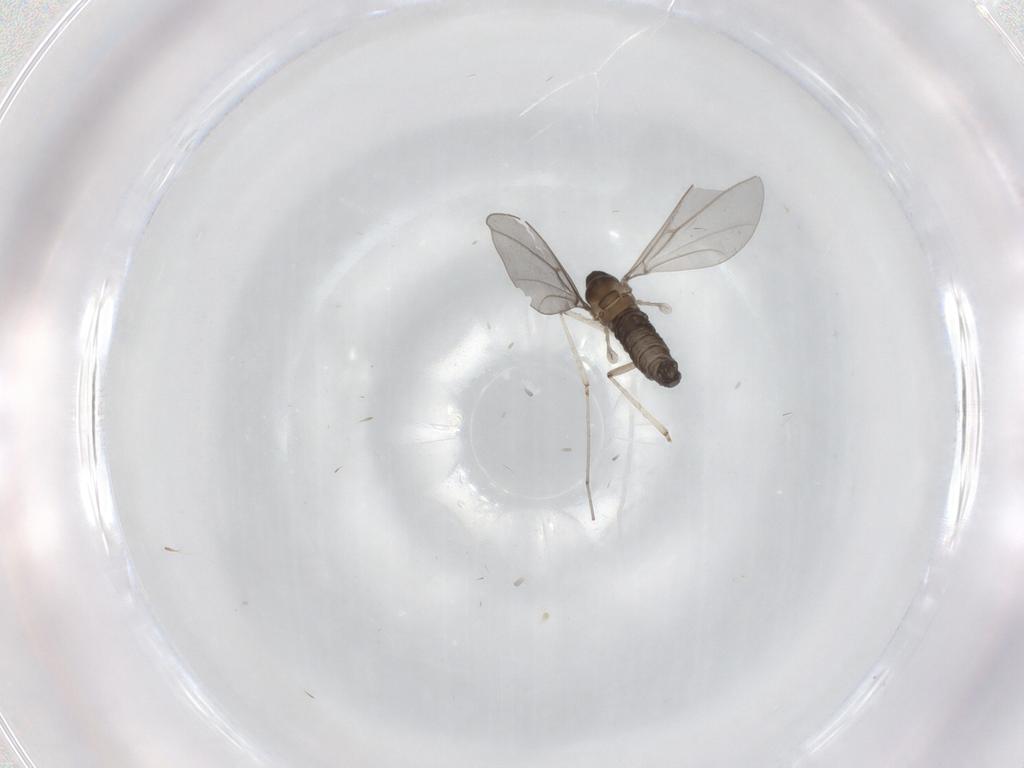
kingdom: Animalia
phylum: Arthropoda
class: Insecta
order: Diptera
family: Cecidomyiidae
